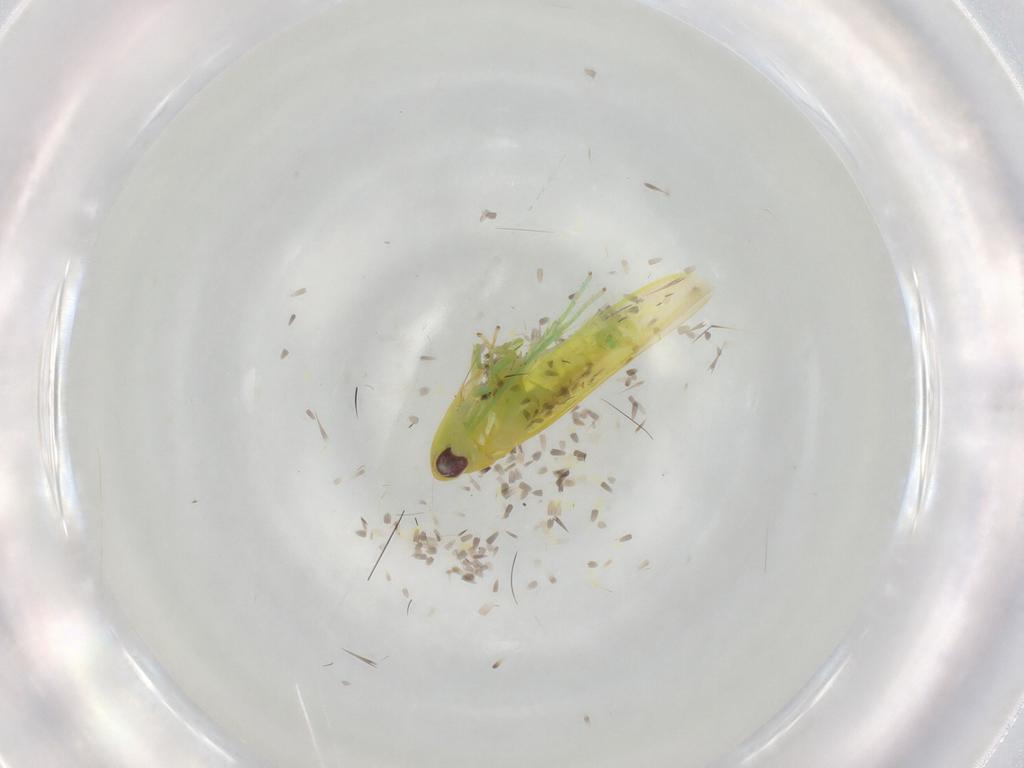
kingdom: Animalia
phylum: Arthropoda
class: Insecta
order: Hemiptera
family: Cicadellidae
